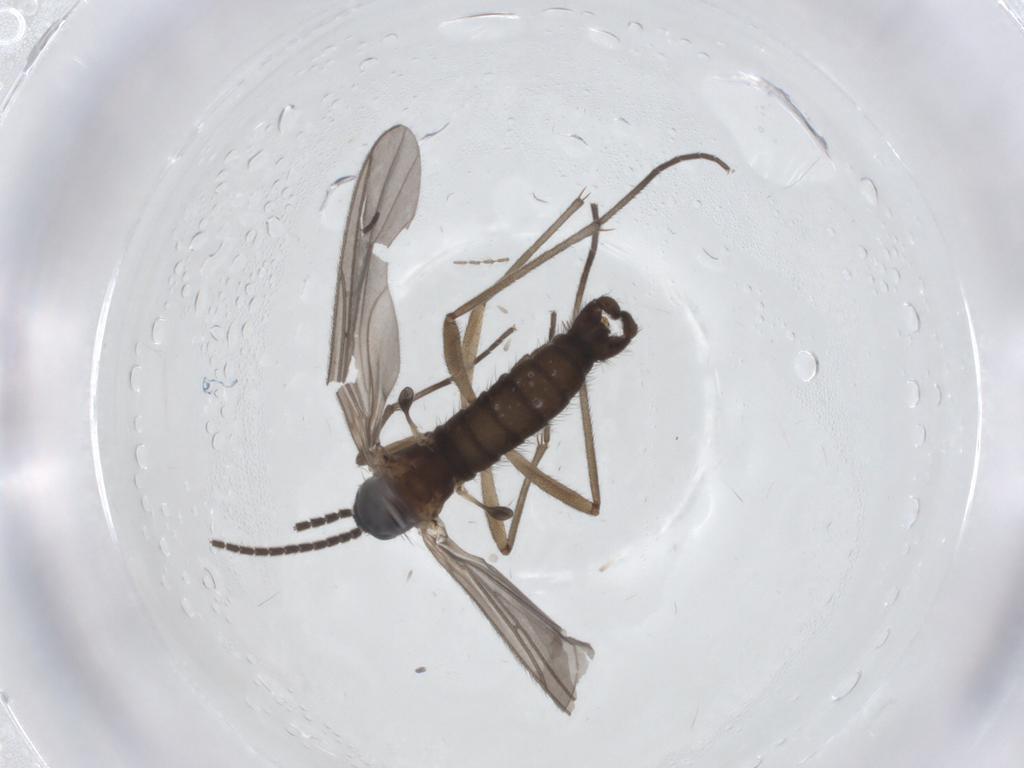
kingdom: Animalia
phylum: Arthropoda
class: Insecta
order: Diptera
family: Sciaridae
